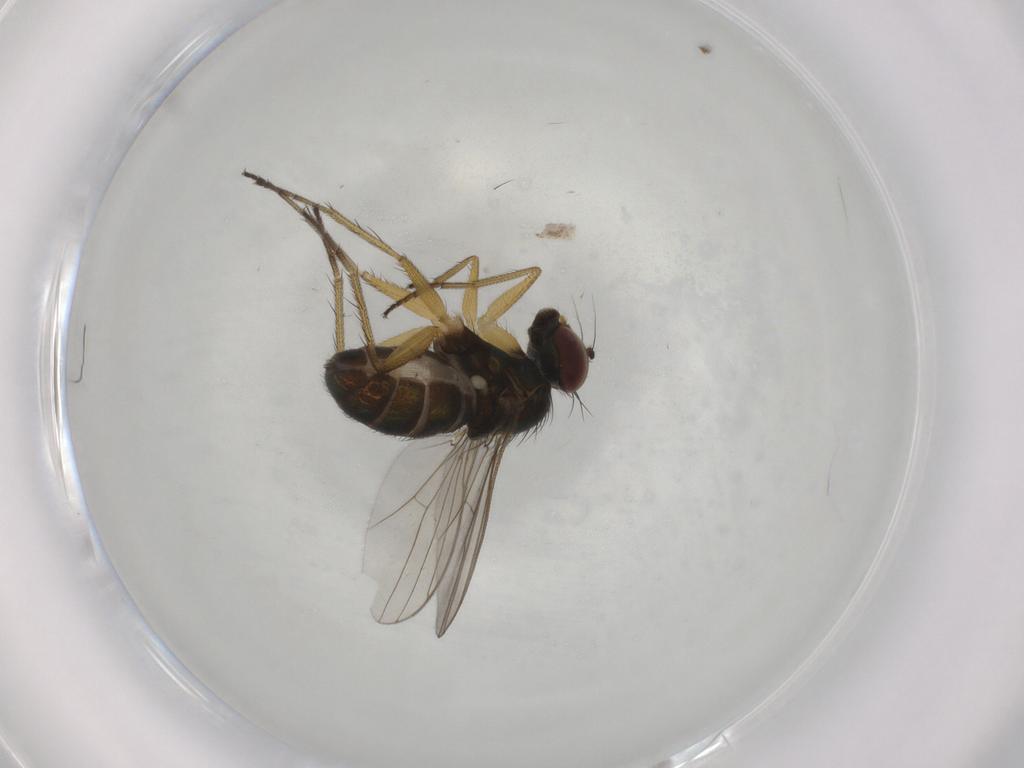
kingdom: Animalia
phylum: Arthropoda
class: Insecta
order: Diptera
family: Dolichopodidae
